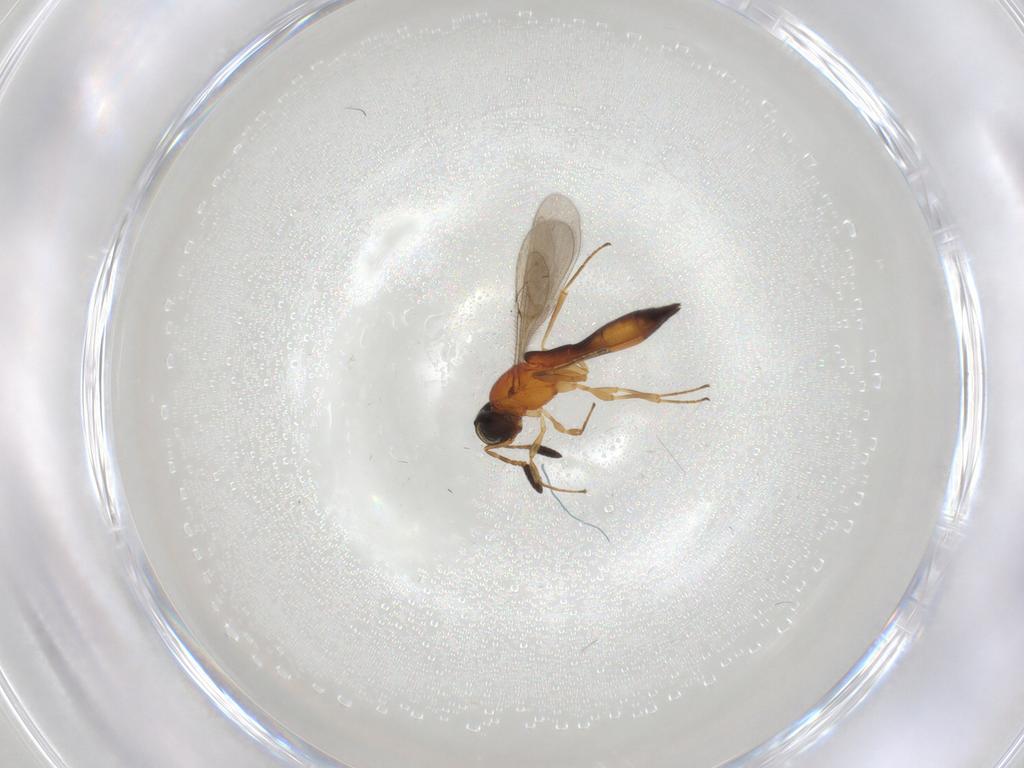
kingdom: Animalia
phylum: Arthropoda
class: Insecta
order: Hymenoptera
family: Scelionidae
